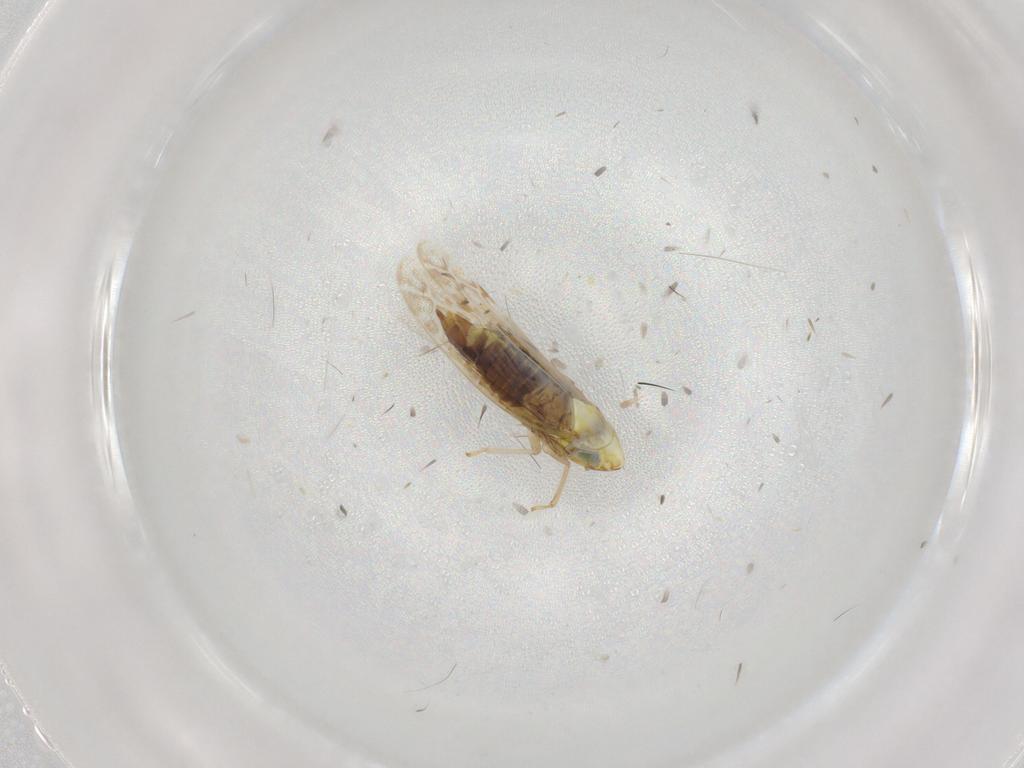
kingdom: Animalia
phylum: Arthropoda
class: Insecta
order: Hemiptera
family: Cicadellidae
